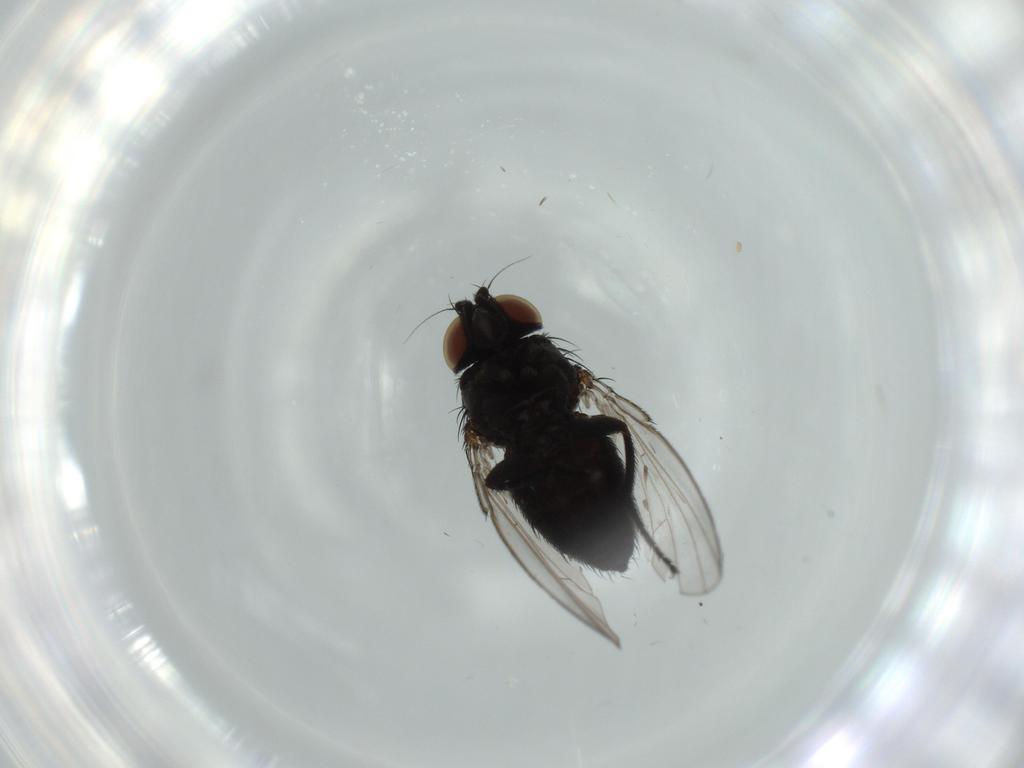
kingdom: Animalia
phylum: Arthropoda
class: Insecta
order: Diptera
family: Milichiidae
